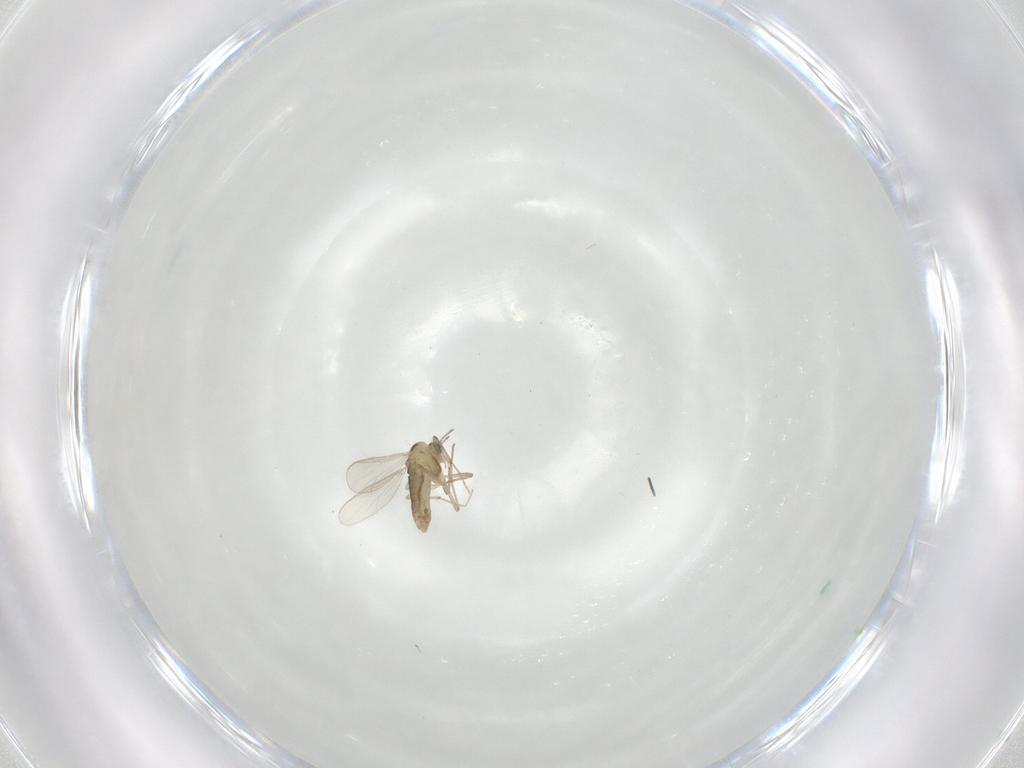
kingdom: Animalia
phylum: Arthropoda
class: Insecta
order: Diptera
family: Chironomidae
